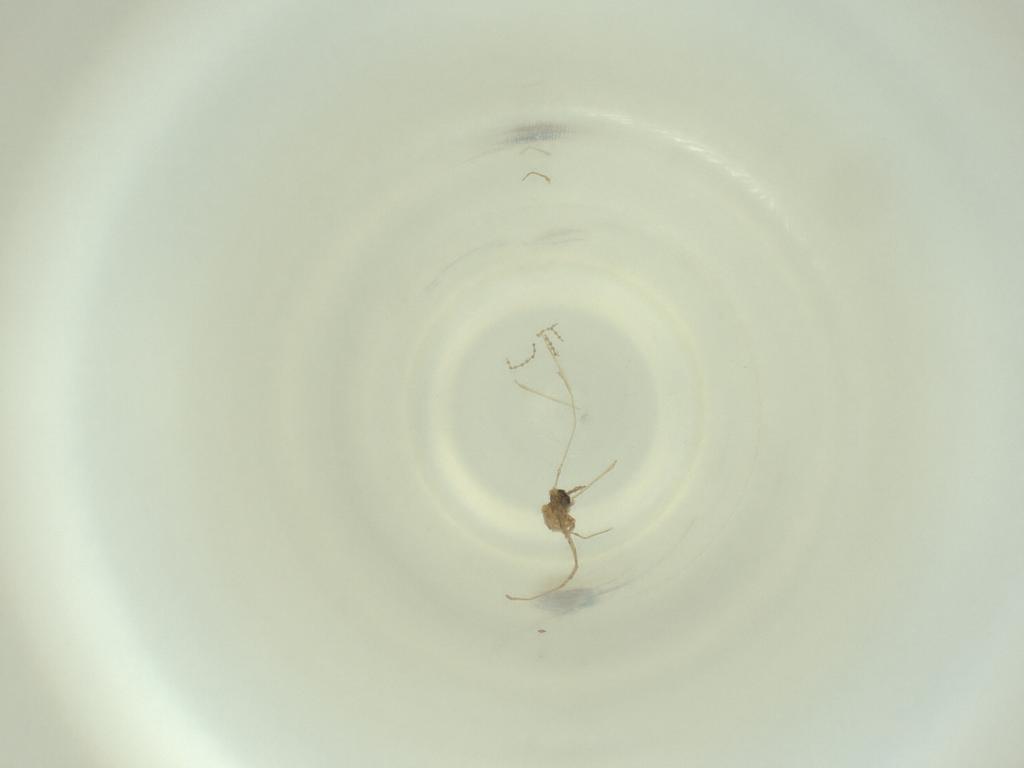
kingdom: Animalia
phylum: Arthropoda
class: Insecta
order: Diptera
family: Cecidomyiidae
